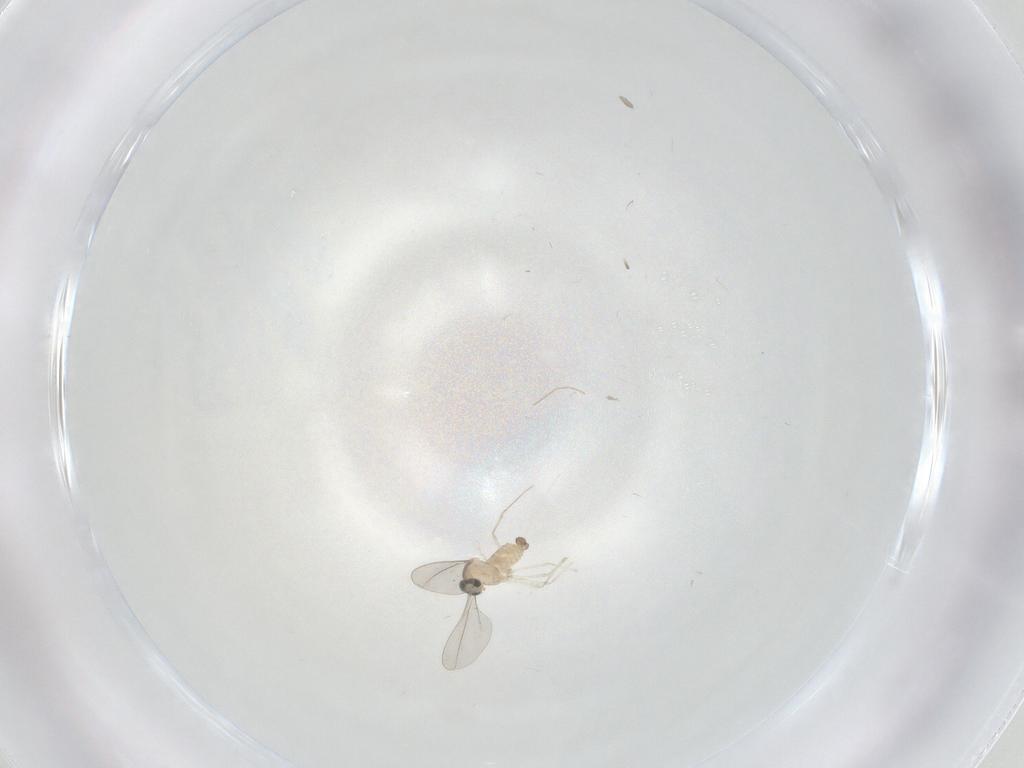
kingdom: Animalia
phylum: Arthropoda
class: Insecta
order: Diptera
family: Cecidomyiidae
